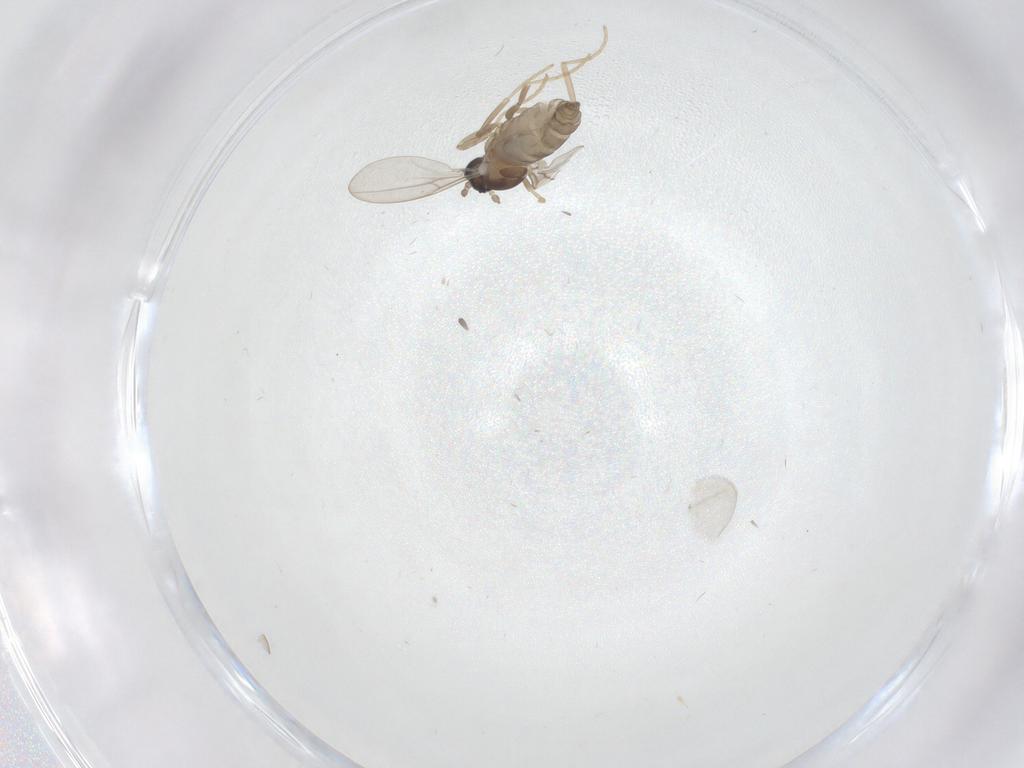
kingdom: Animalia
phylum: Arthropoda
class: Insecta
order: Diptera
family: Cecidomyiidae
